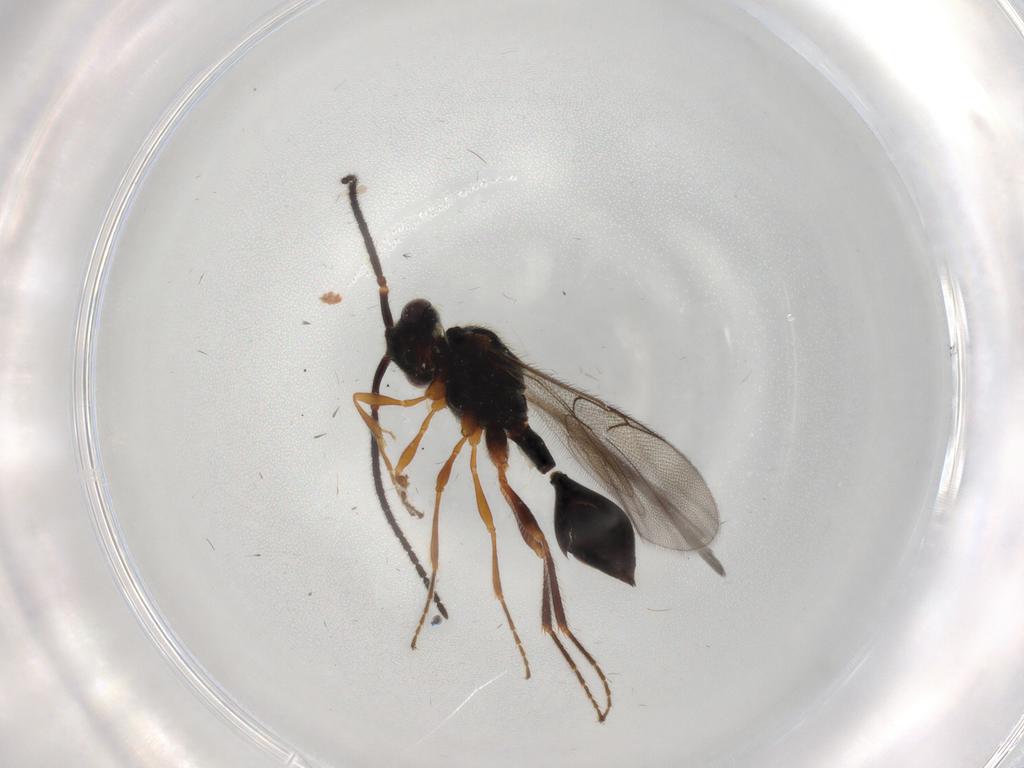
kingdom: Animalia
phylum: Arthropoda
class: Insecta
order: Hymenoptera
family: Diapriidae
